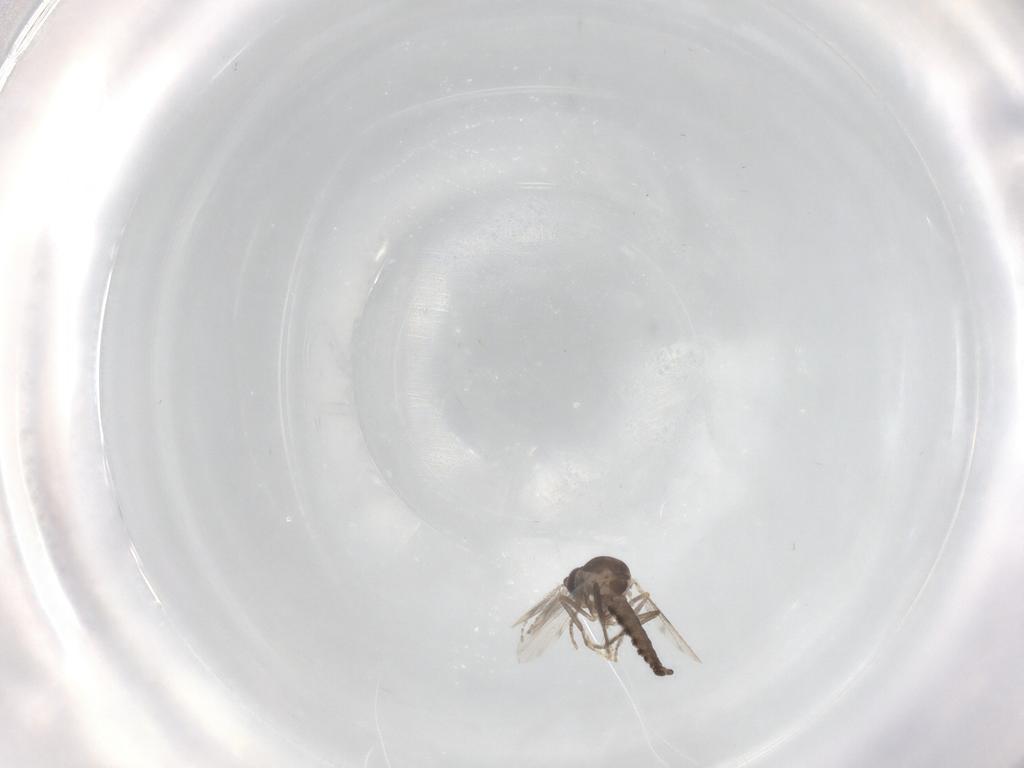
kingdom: Animalia
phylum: Arthropoda
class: Insecta
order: Diptera
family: Ceratopogonidae
